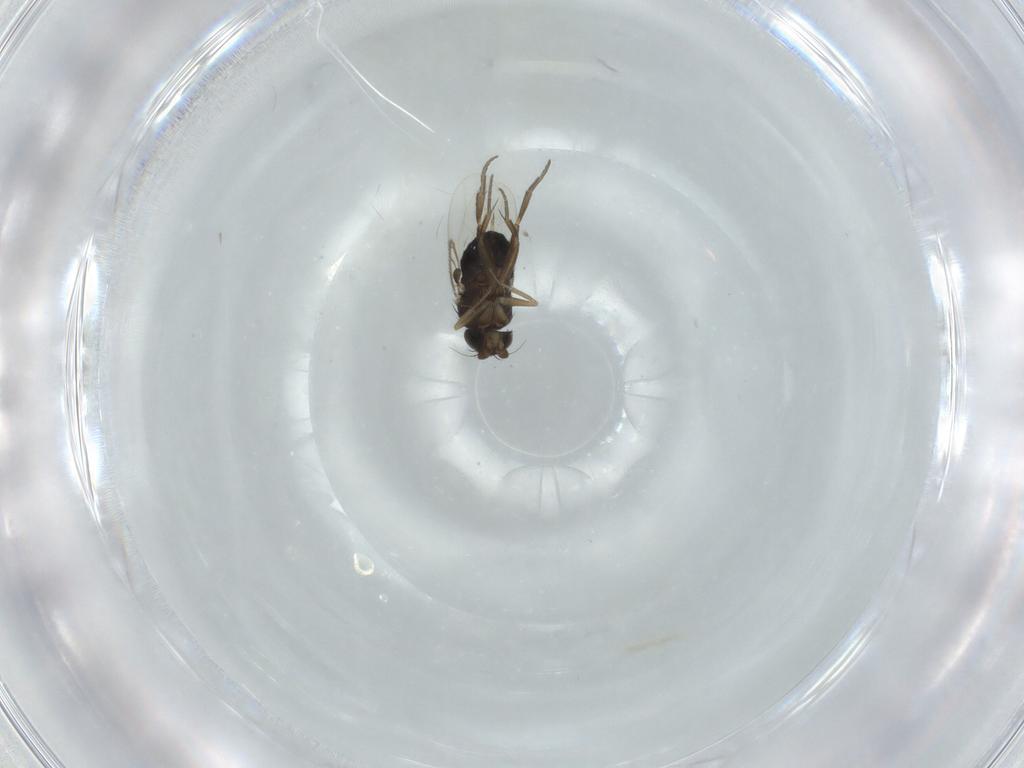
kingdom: Animalia
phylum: Arthropoda
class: Insecta
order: Diptera
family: Phoridae
